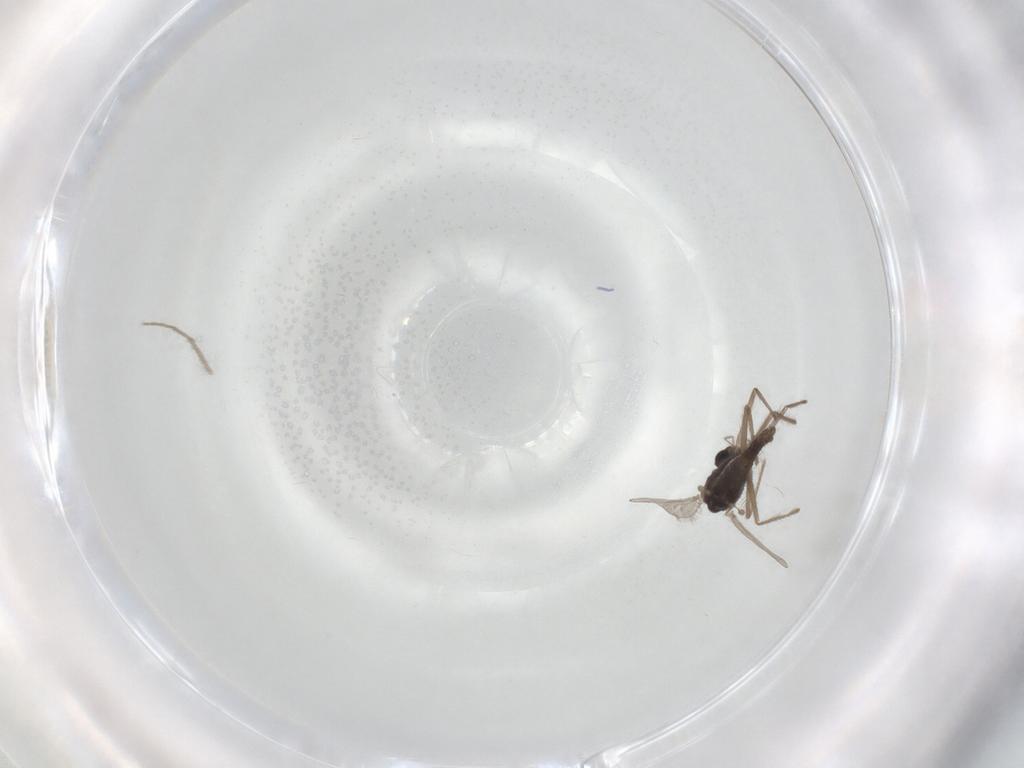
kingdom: Animalia
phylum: Arthropoda
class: Insecta
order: Diptera
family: Chironomidae
